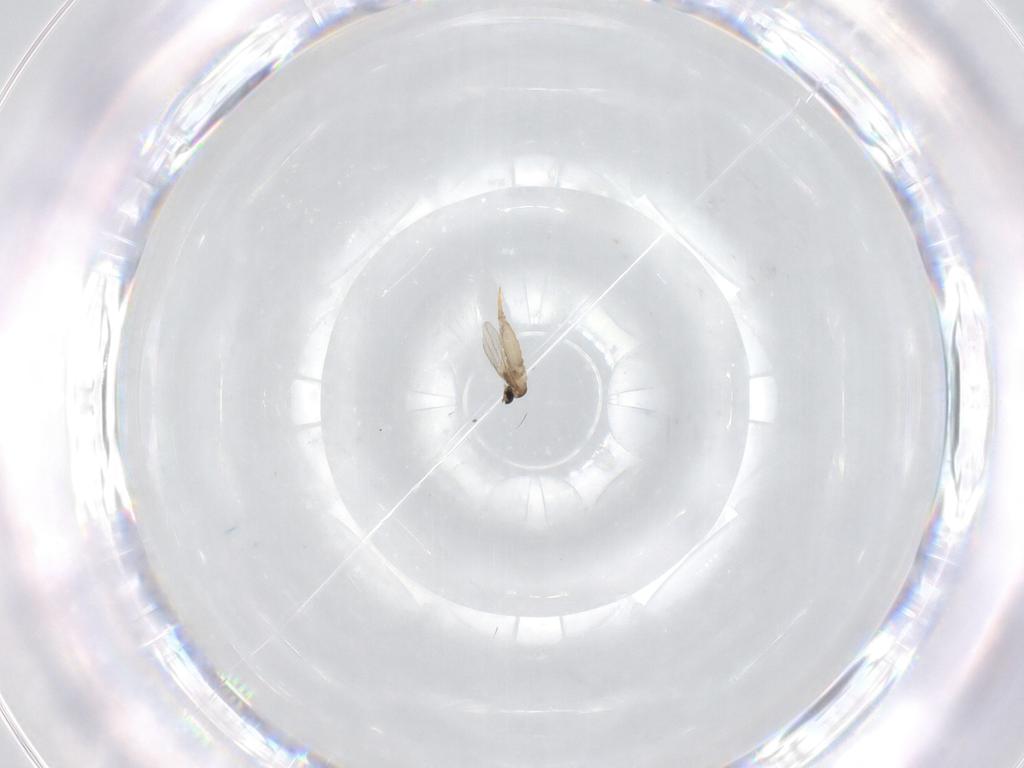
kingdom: Animalia
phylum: Arthropoda
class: Insecta
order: Diptera
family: Cecidomyiidae
